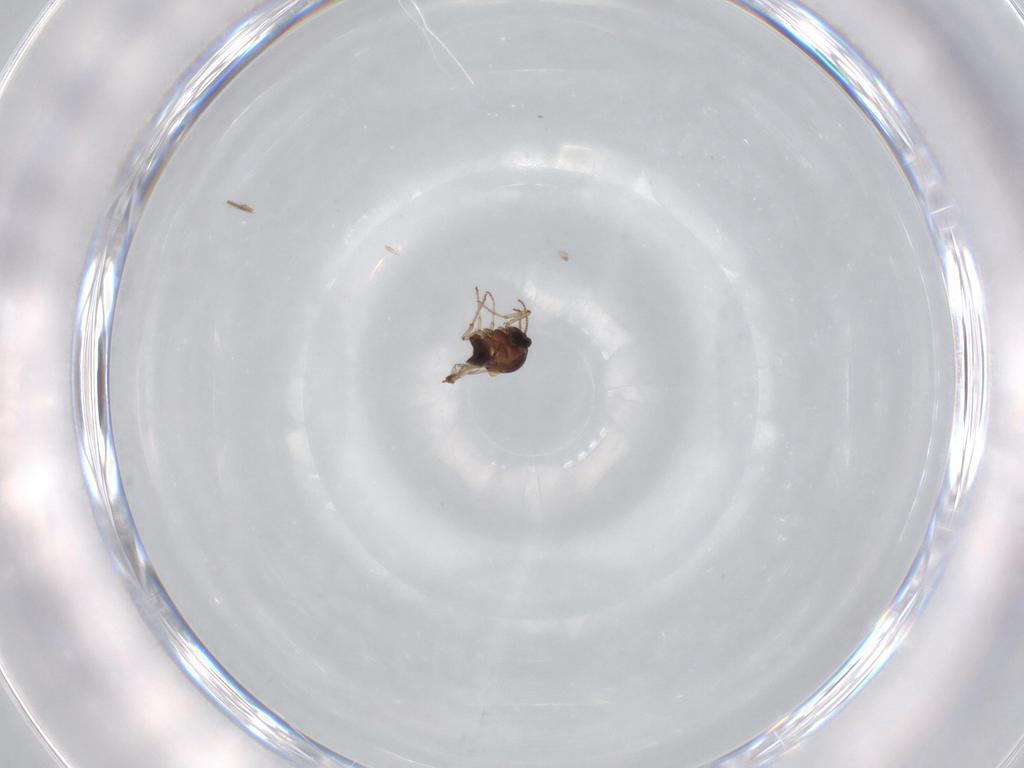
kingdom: Animalia
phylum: Arthropoda
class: Insecta
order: Diptera
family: Ceratopogonidae
